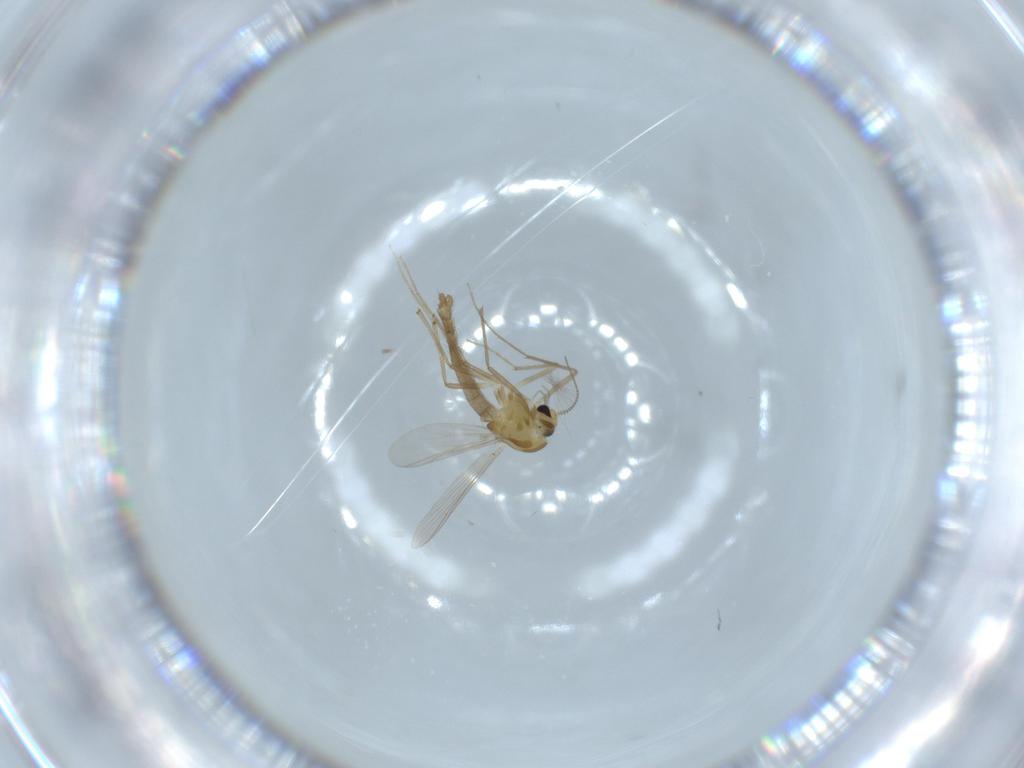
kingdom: Animalia
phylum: Arthropoda
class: Insecta
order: Diptera
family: Chironomidae
